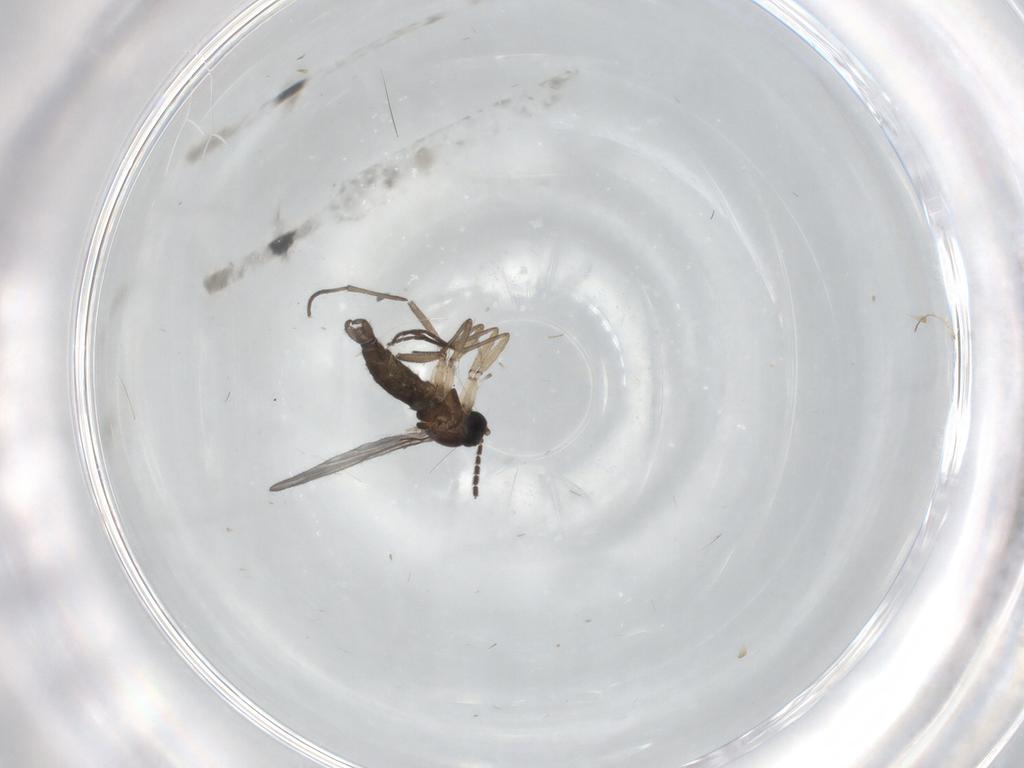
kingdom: Animalia
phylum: Arthropoda
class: Insecta
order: Diptera
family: Sciaridae
